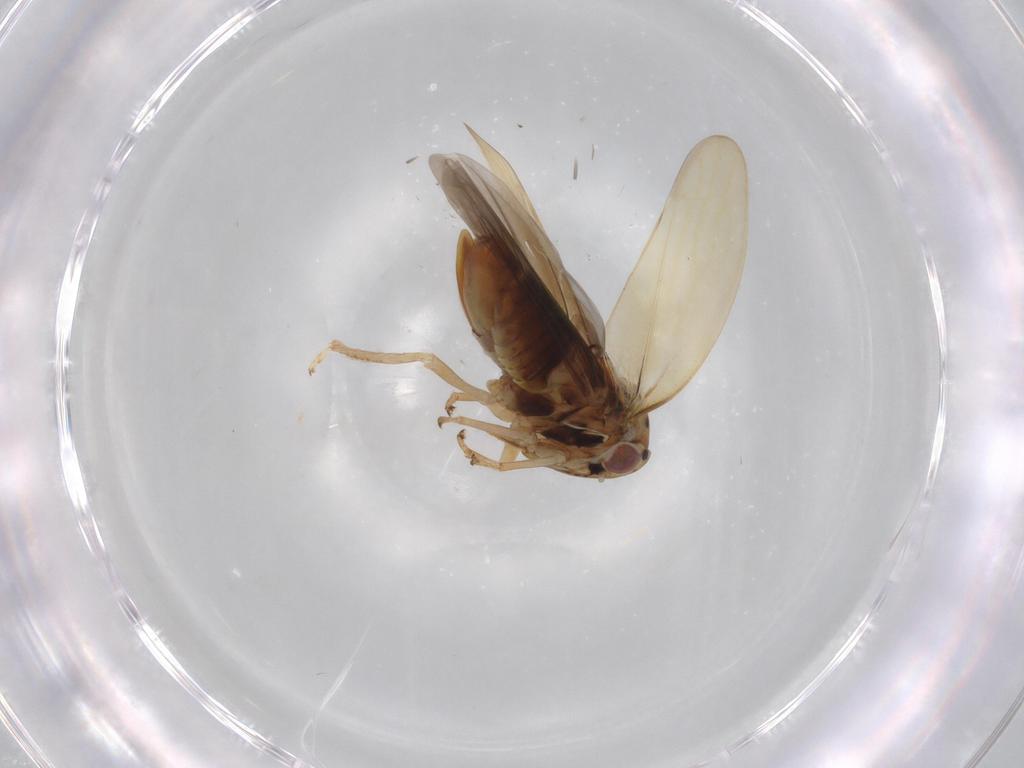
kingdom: Animalia
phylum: Arthropoda
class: Insecta
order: Hemiptera
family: Cicadellidae
